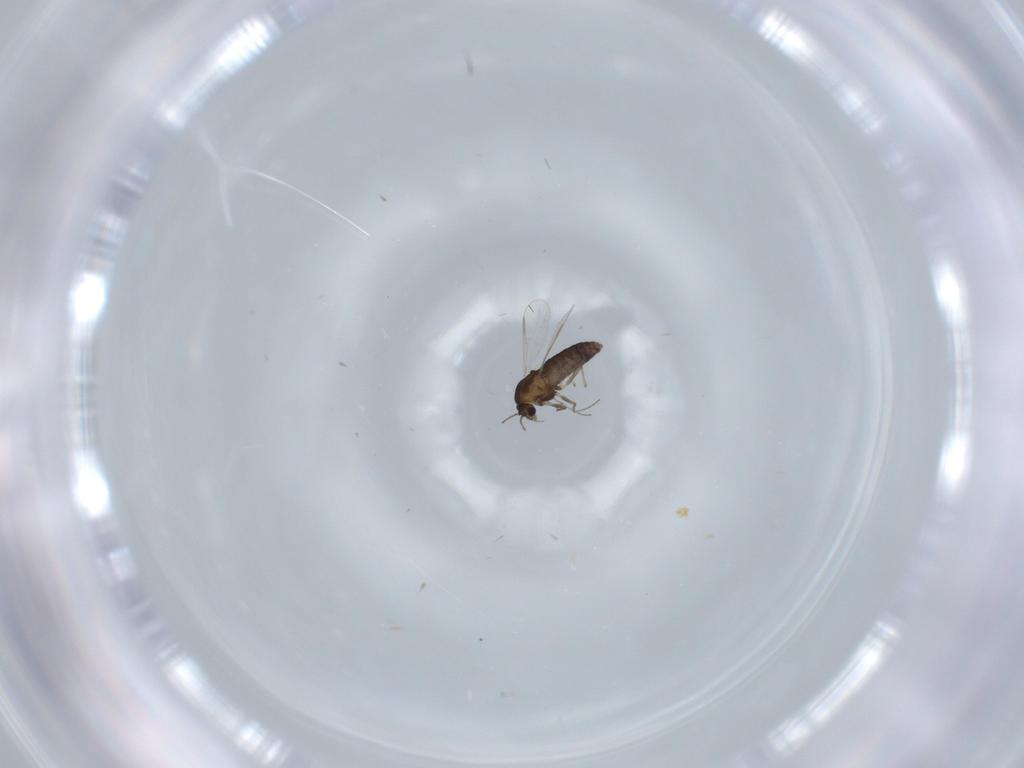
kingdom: Animalia
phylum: Arthropoda
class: Insecta
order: Diptera
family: Chironomidae
